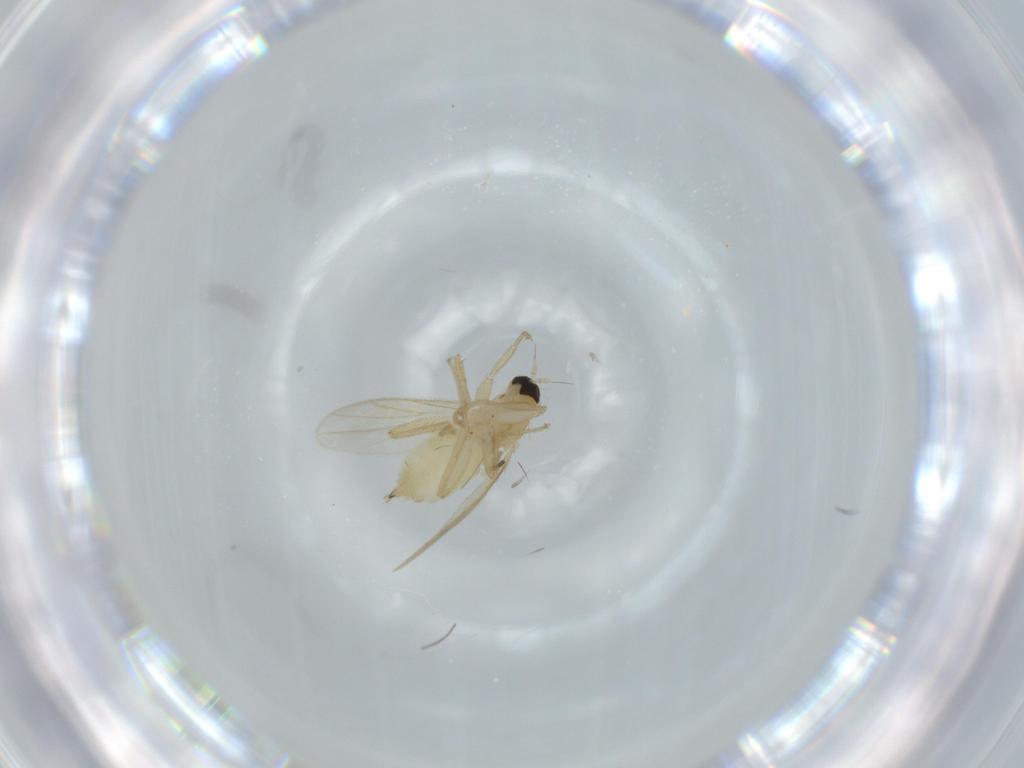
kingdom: Animalia
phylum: Arthropoda
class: Insecta
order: Diptera
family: Hybotidae
